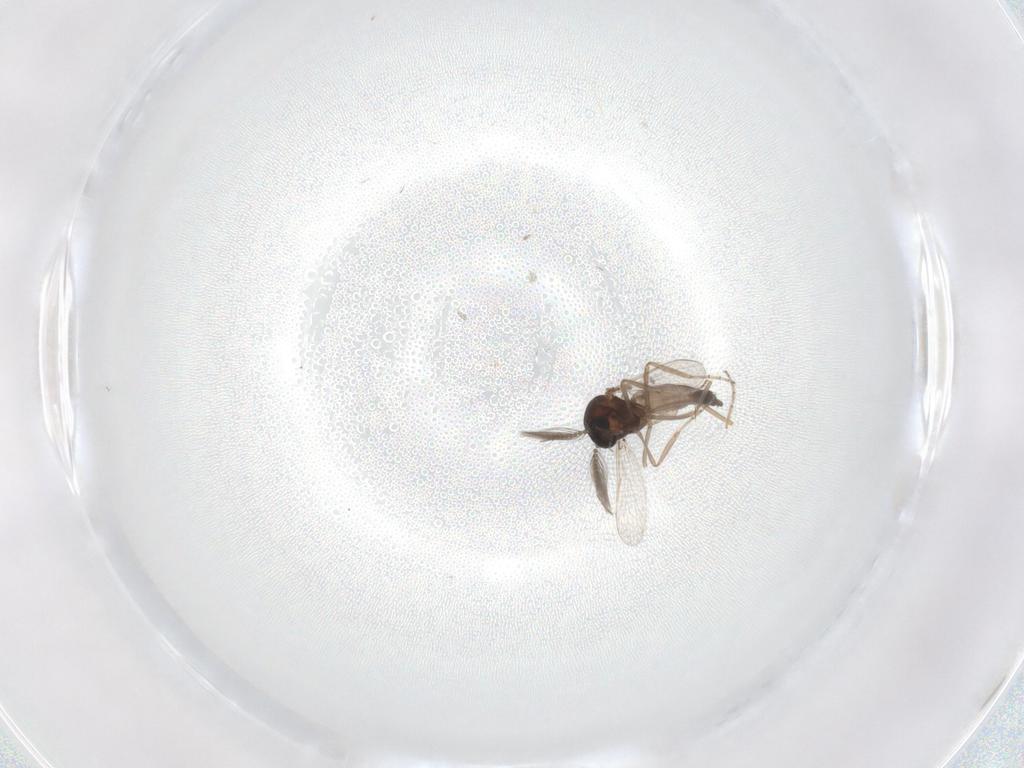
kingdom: Animalia
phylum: Arthropoda
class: Insecta
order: Diptera
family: Ceratopogonidae
